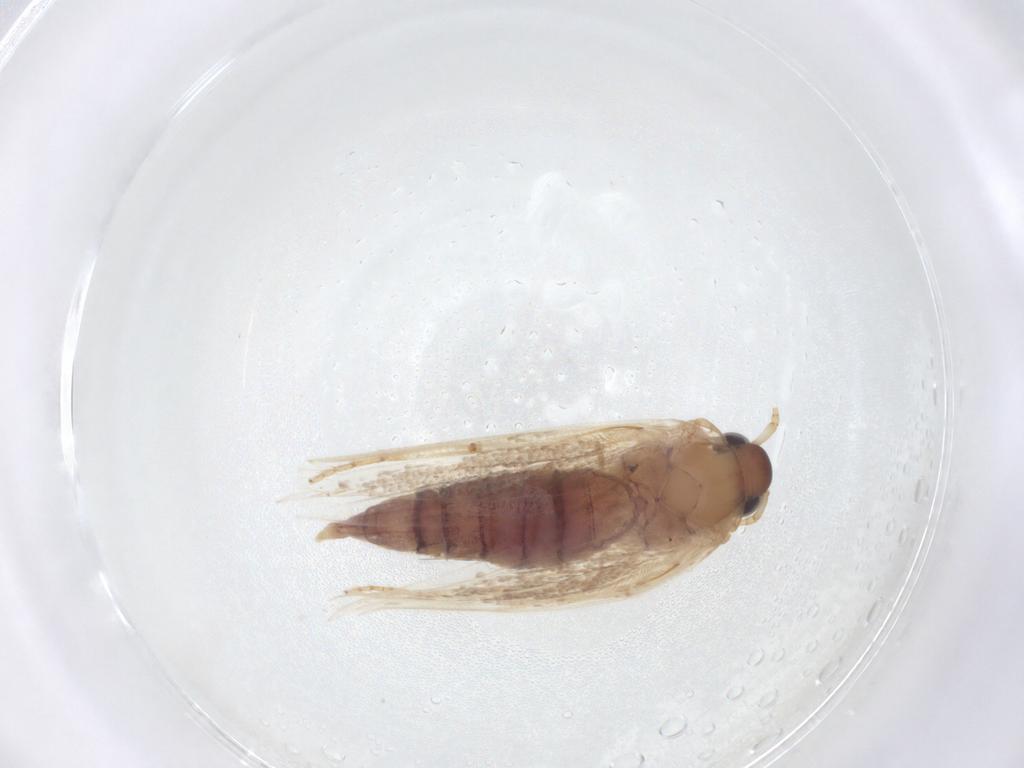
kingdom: Animalia
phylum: Arthropoda
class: Insecta
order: Lepidoptera
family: Blastobasidae
